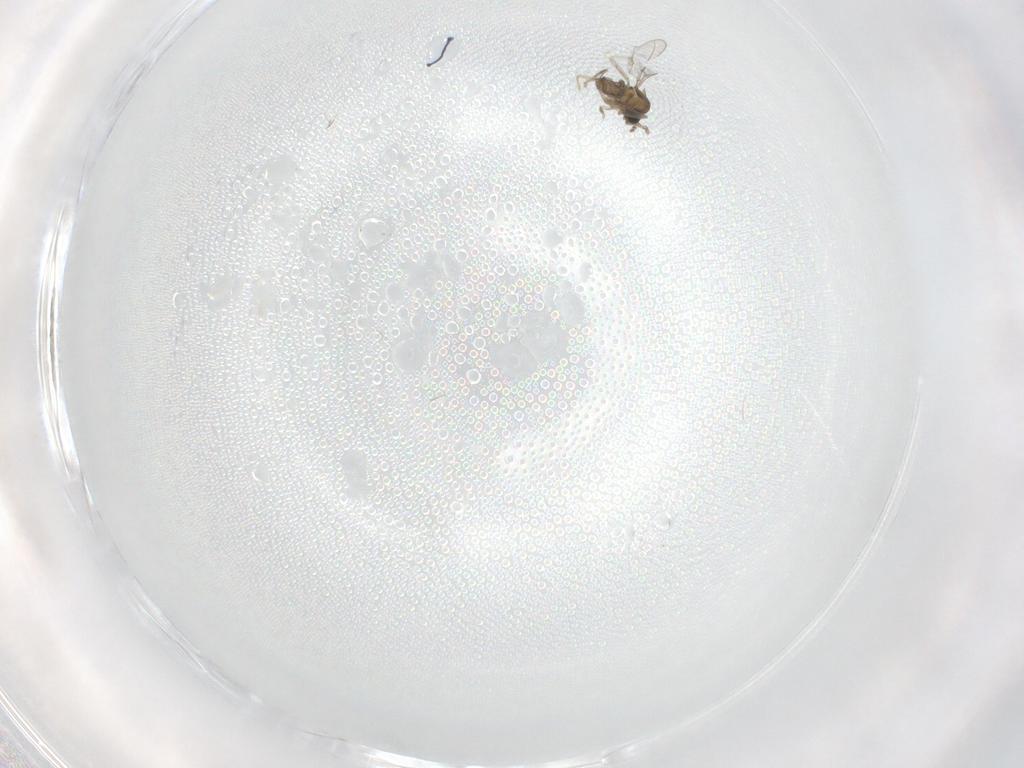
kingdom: Animalia
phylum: Arthropoda
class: Insecta
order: Diptera
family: Cecidomyiidae
